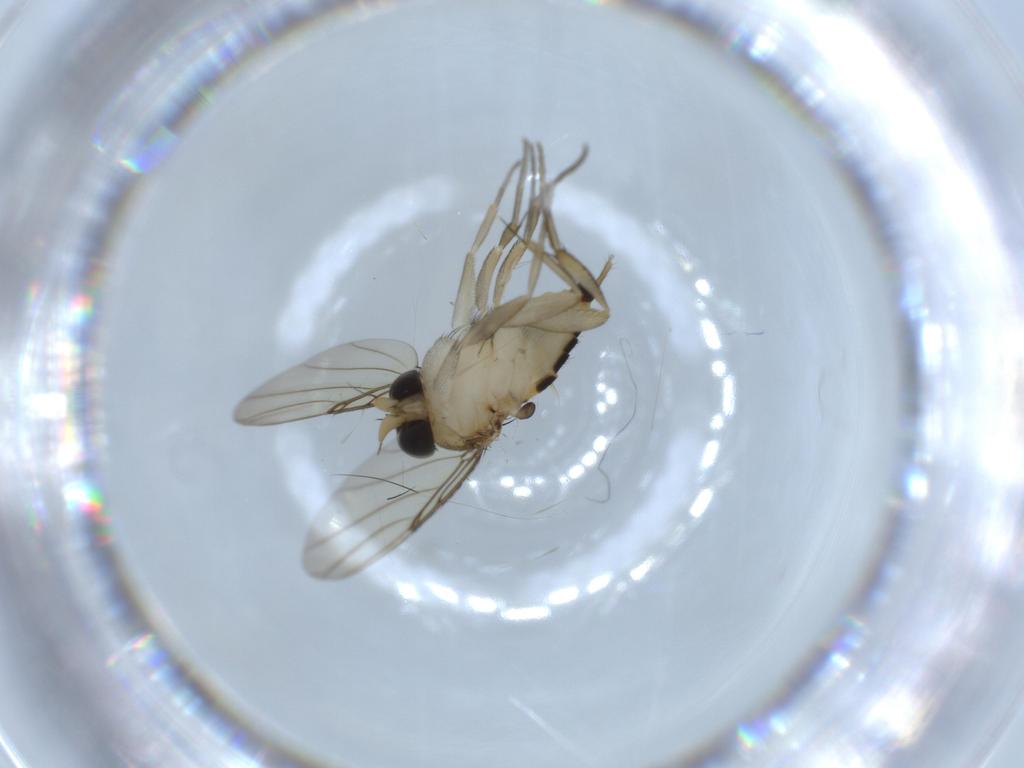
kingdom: Animalia
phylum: Arthropoda
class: Insecta
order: Diptera
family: Phoridae
